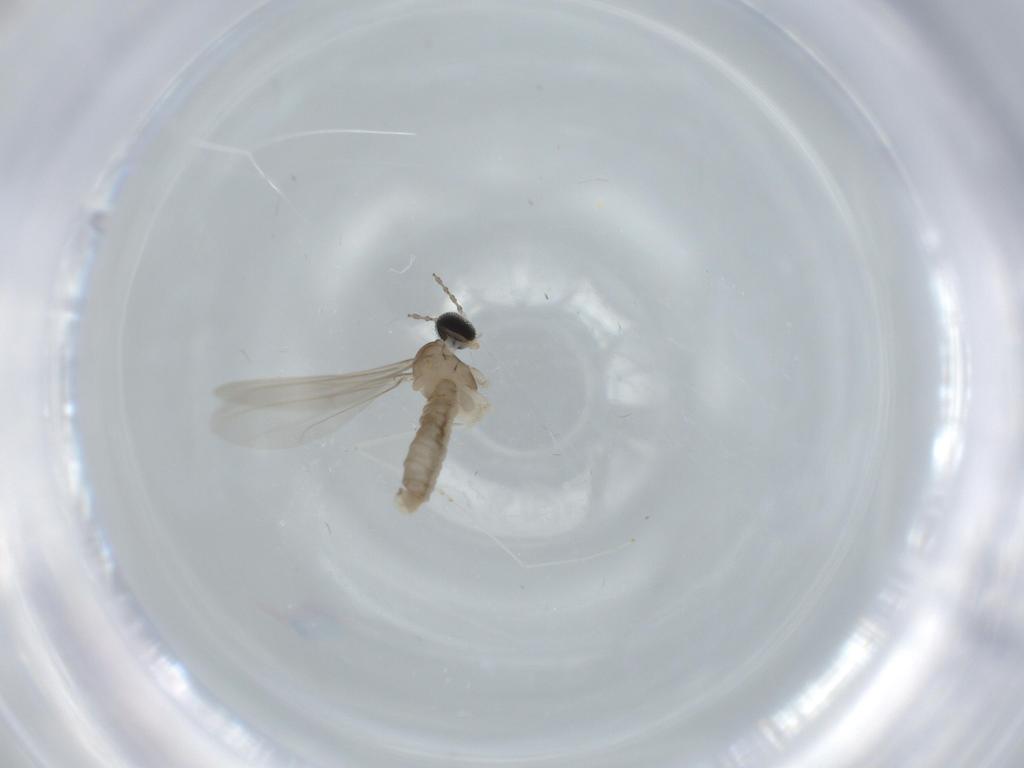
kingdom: Animalia
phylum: Arthropoda
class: Insecta
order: Diptera
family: Cecidomyiidae
